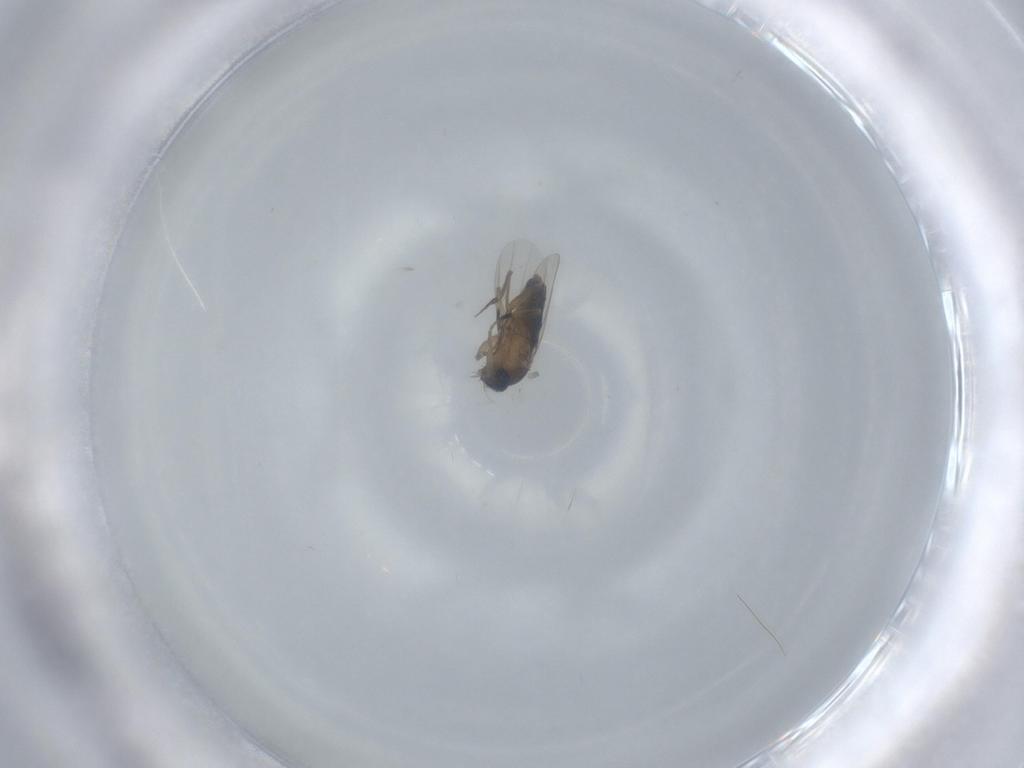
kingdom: Animalia
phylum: Arthropoda
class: Insecta
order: Diptera
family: Phoridae
